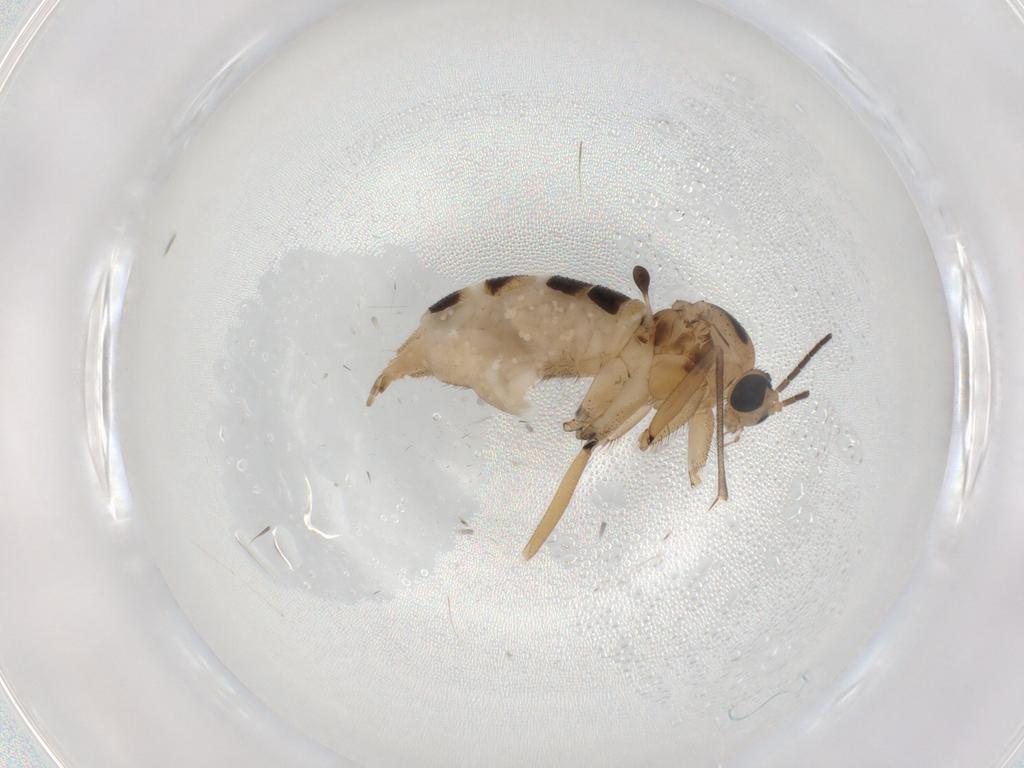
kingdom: Animalia
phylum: Arthropoda
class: Insecta
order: Diptera
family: Sciaridae
